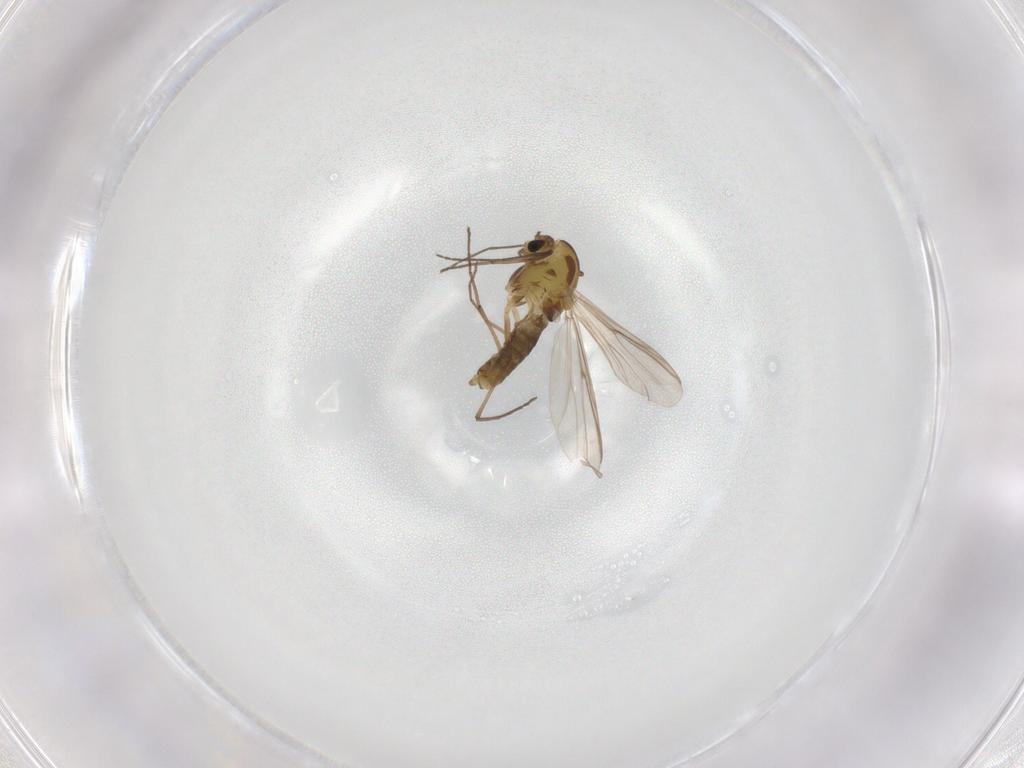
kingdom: Animalia
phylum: Arthropoda
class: Insecta
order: Diptera
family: Chironomidae
